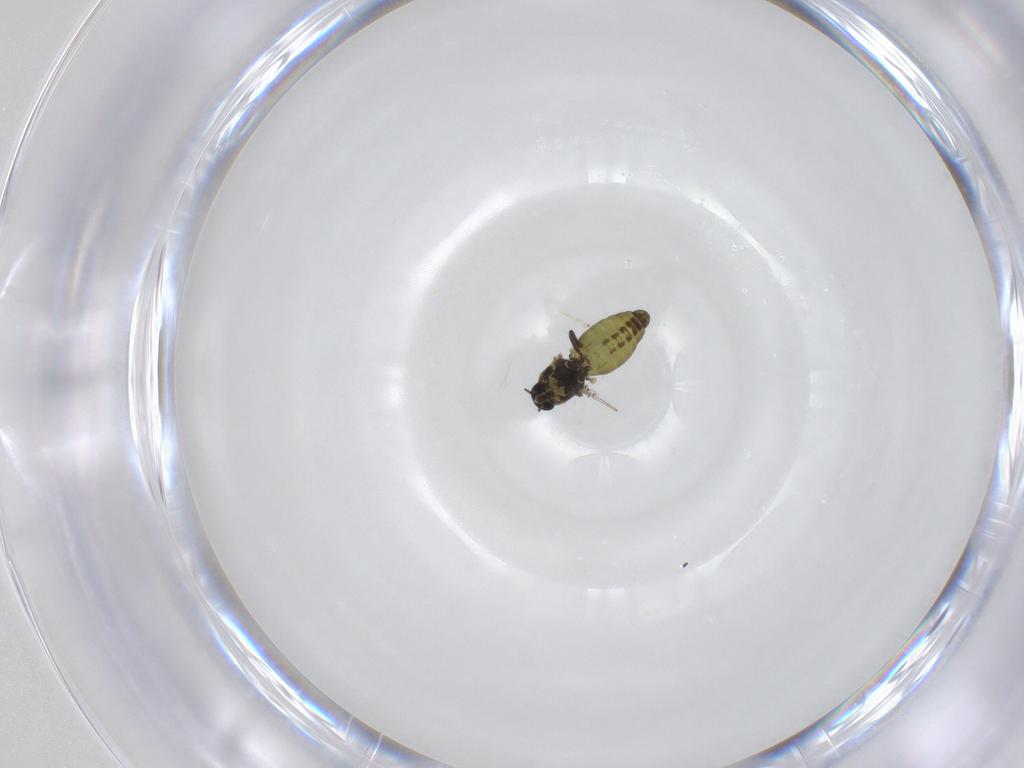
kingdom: Animalia
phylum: Arthropoda
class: Insecta
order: Diptera
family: Ceratopogonidae
